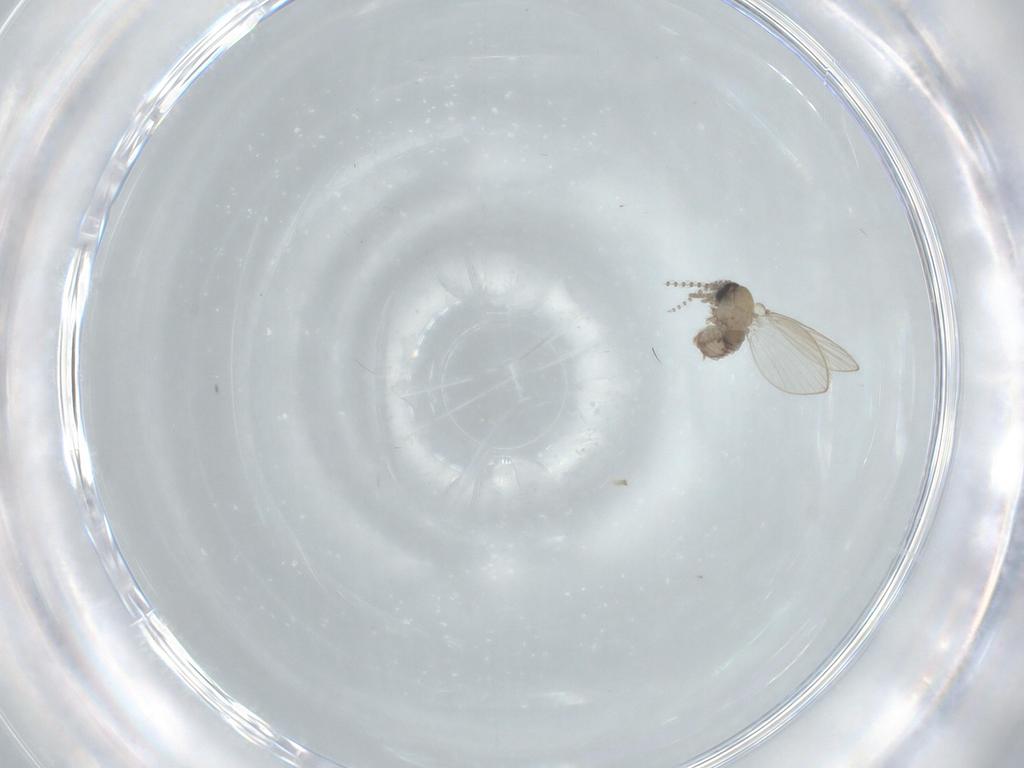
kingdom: Animalia
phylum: Arthropoda
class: Insecta
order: Diptera
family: Psychodidae
